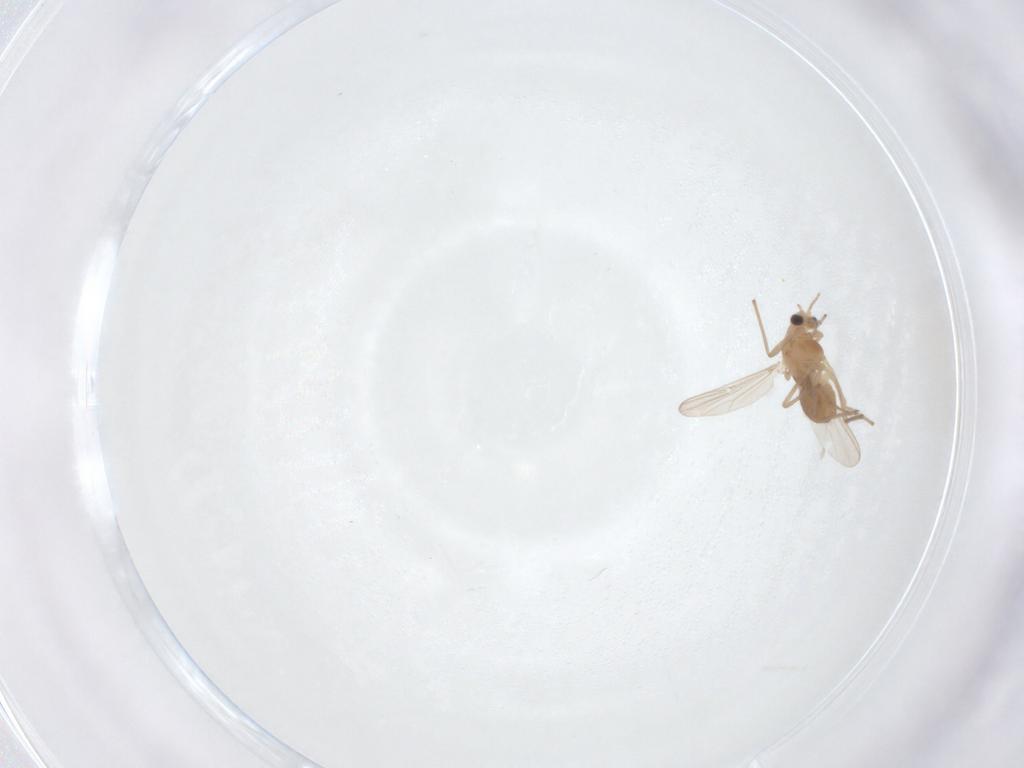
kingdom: Animalia
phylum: Arthropoda
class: Insecta
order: Diptera
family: Chironomidae
